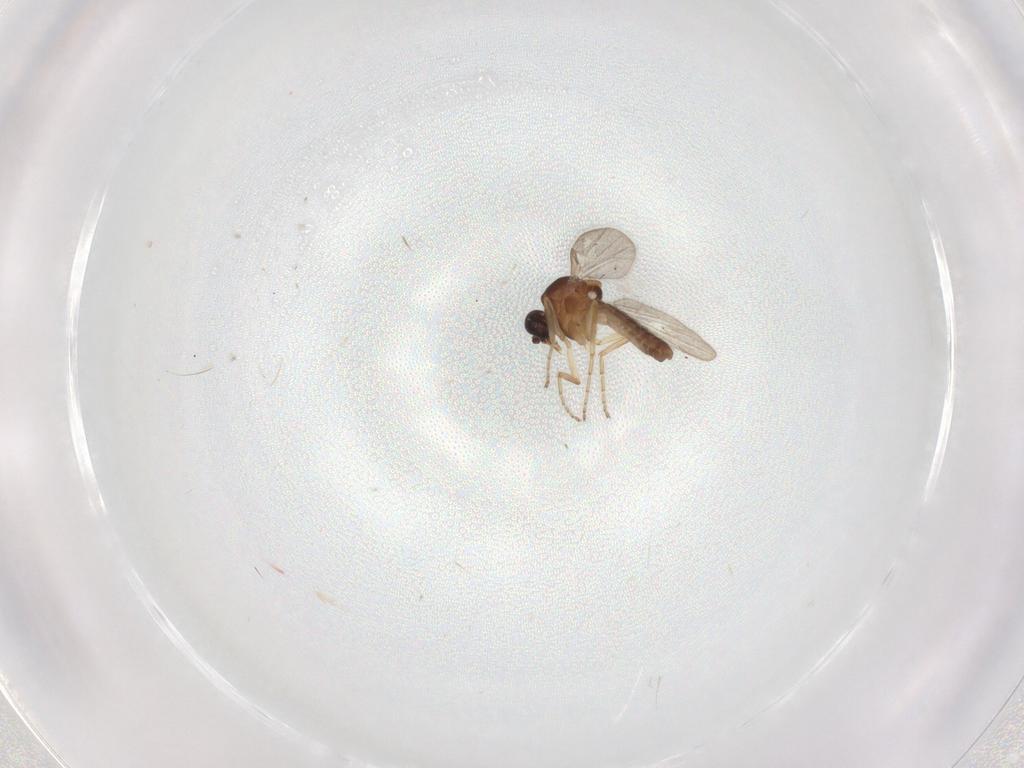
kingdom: Animalia
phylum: Arthropoda
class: Insecta
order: Diptera
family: Ceratopogonidae
